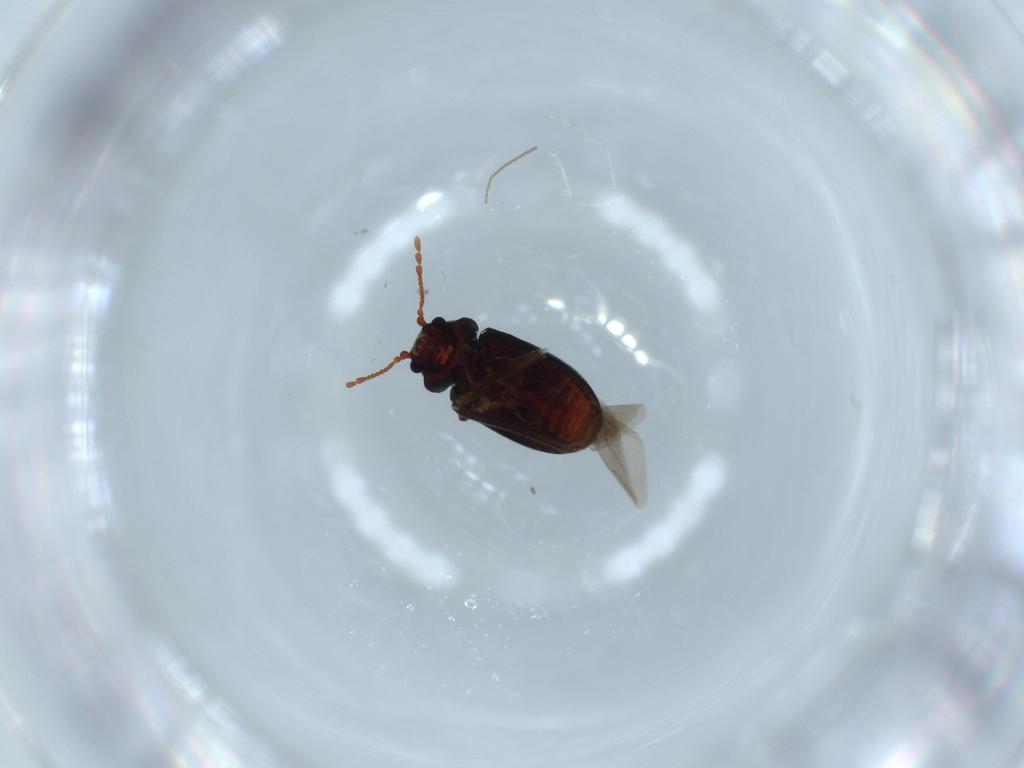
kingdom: Animalia
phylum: Arthropoda
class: Insecta
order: Coleoptera
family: Ptinidae
